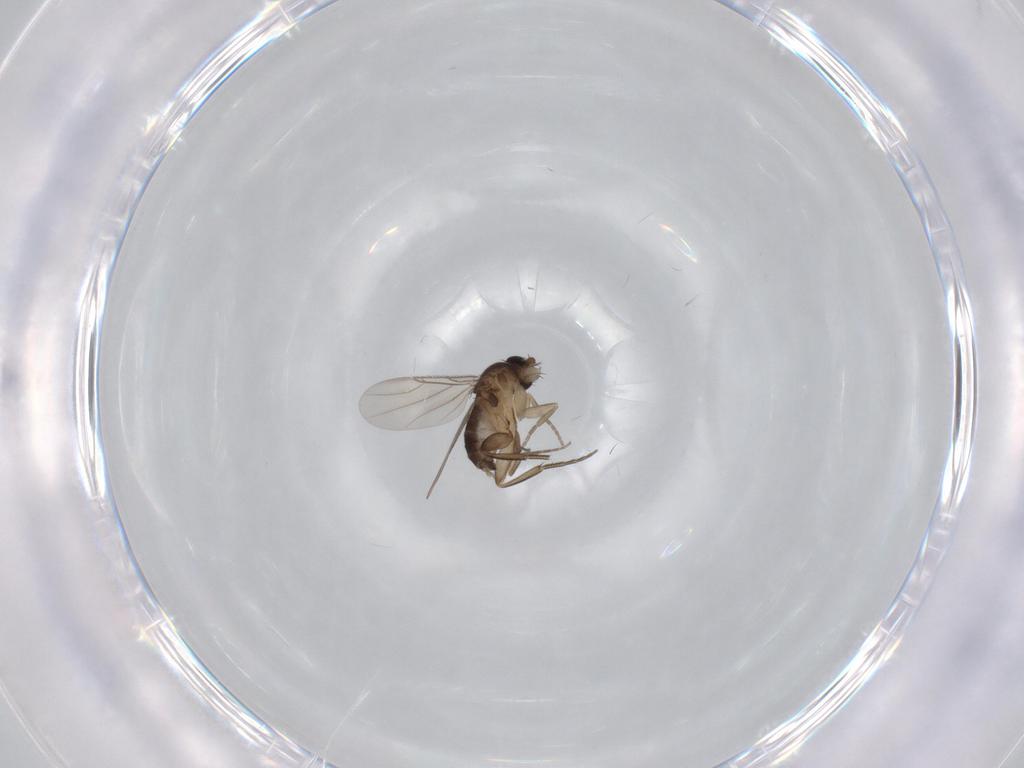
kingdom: Animalia
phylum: Arthropoda
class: Insecta
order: Diptera
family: Phoridae
